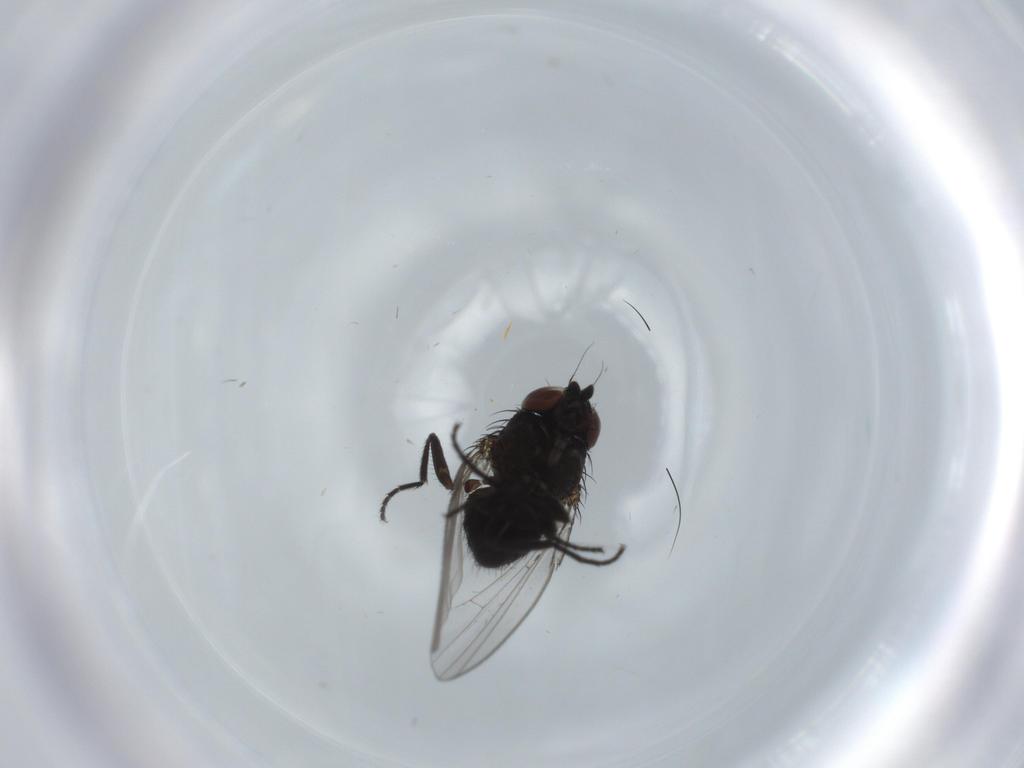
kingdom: Animalia
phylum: Arthropoda
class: Insecta
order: Diptera
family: Milichiidae
